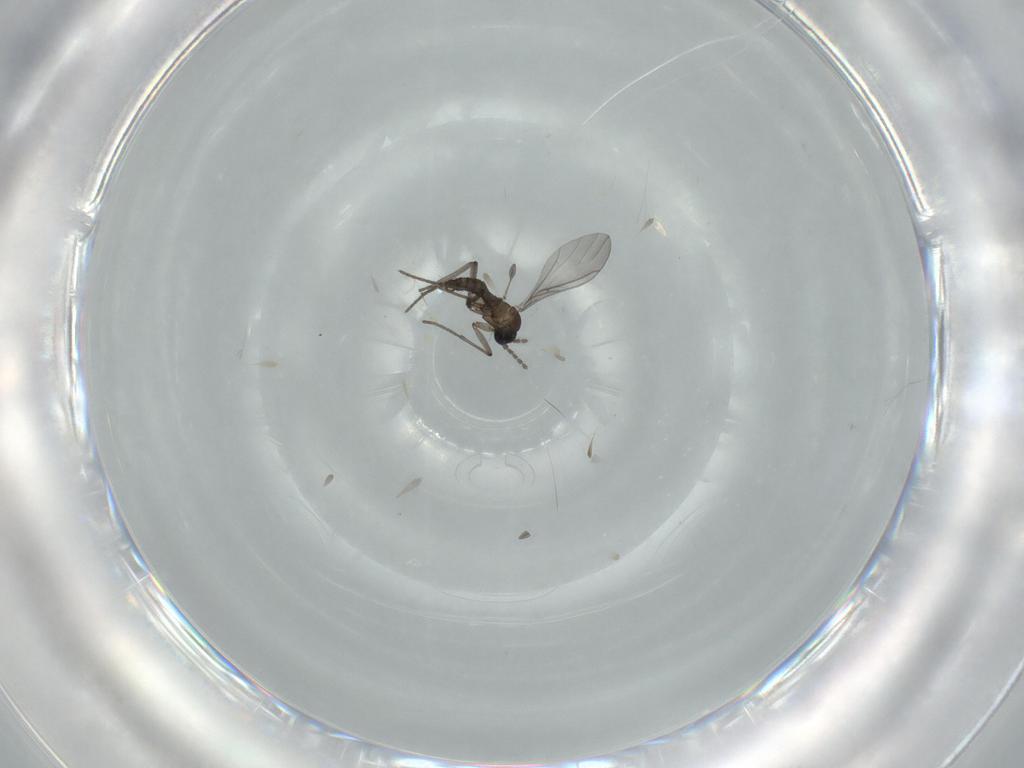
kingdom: Animalia
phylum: Arthropoda
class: Insecta
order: Diptera
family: Sciaridae
